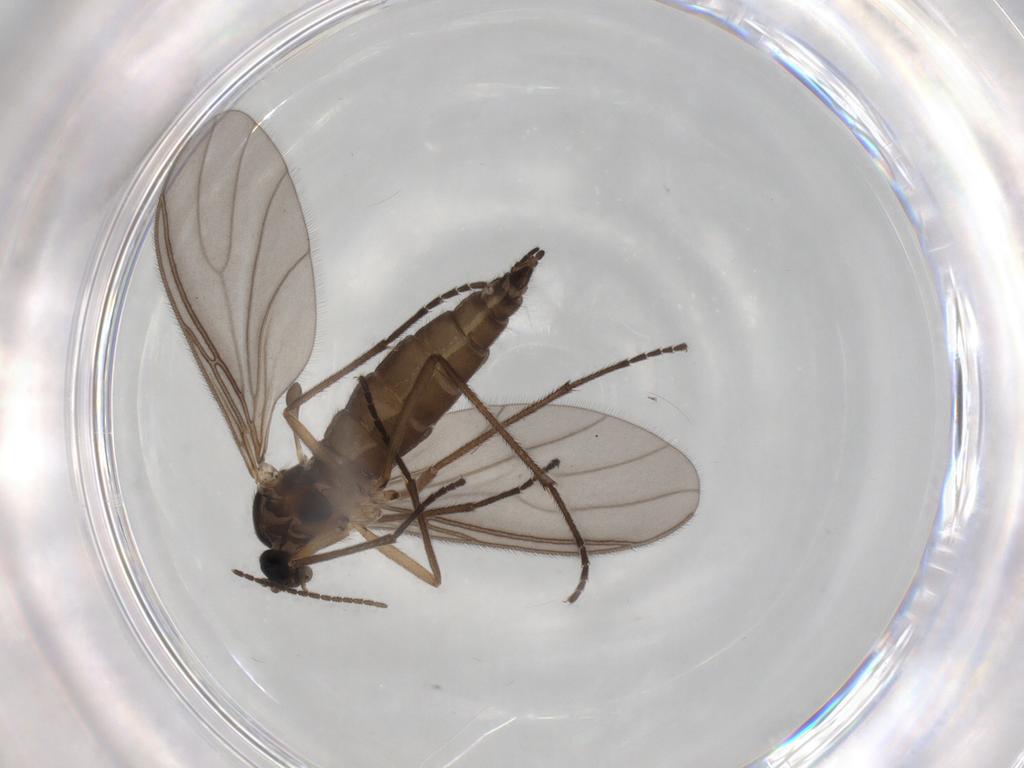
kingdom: Animalia
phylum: Arthropoda
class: Insecta
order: Diptera
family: Sciaridae
